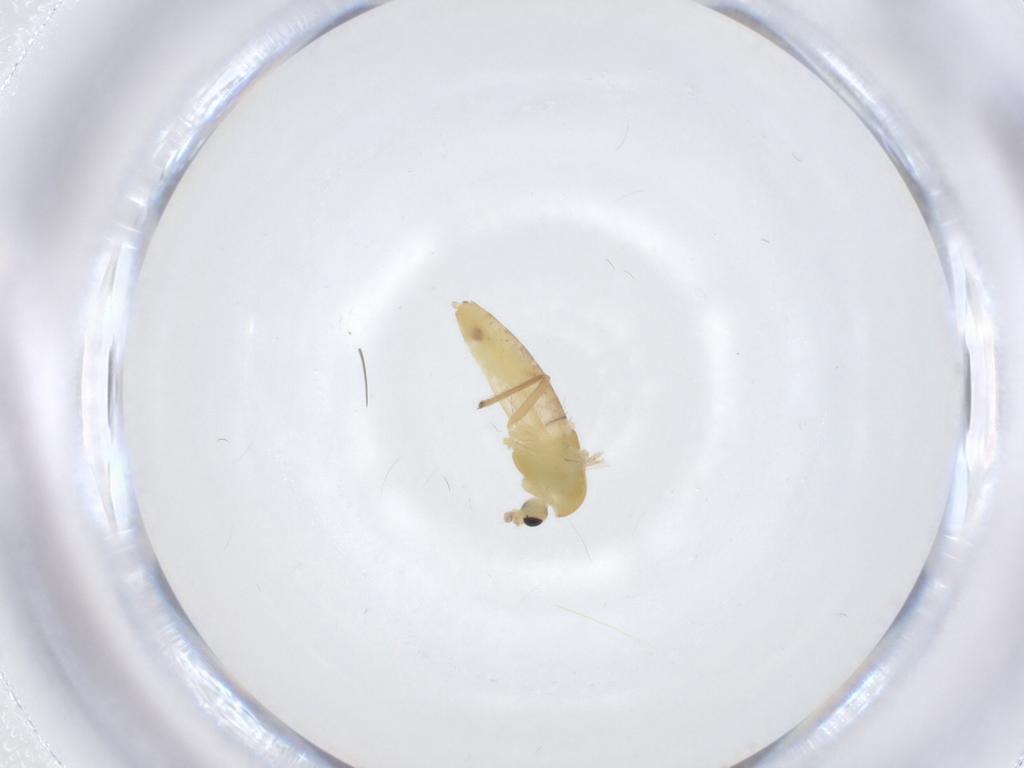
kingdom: Animalia
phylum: Arthropoda
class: Insecta
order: Diptera
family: Chironomidae
